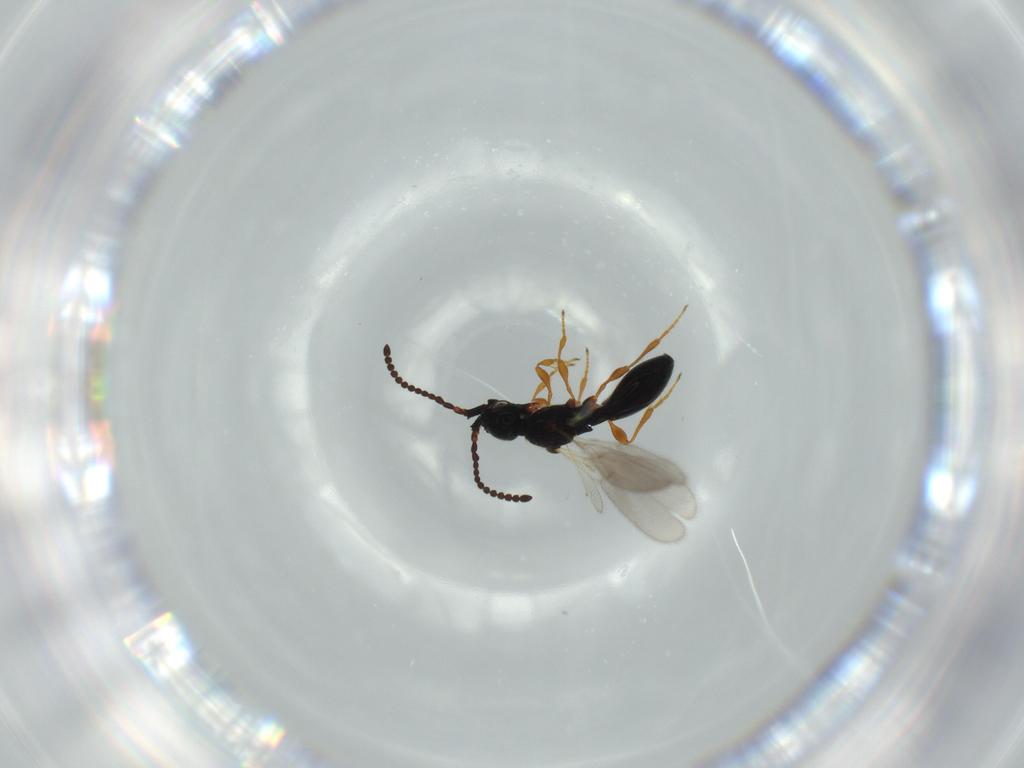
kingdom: Animalia
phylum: Arthropoda
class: Insecta
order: Hymenoptera
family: Diapriidae
